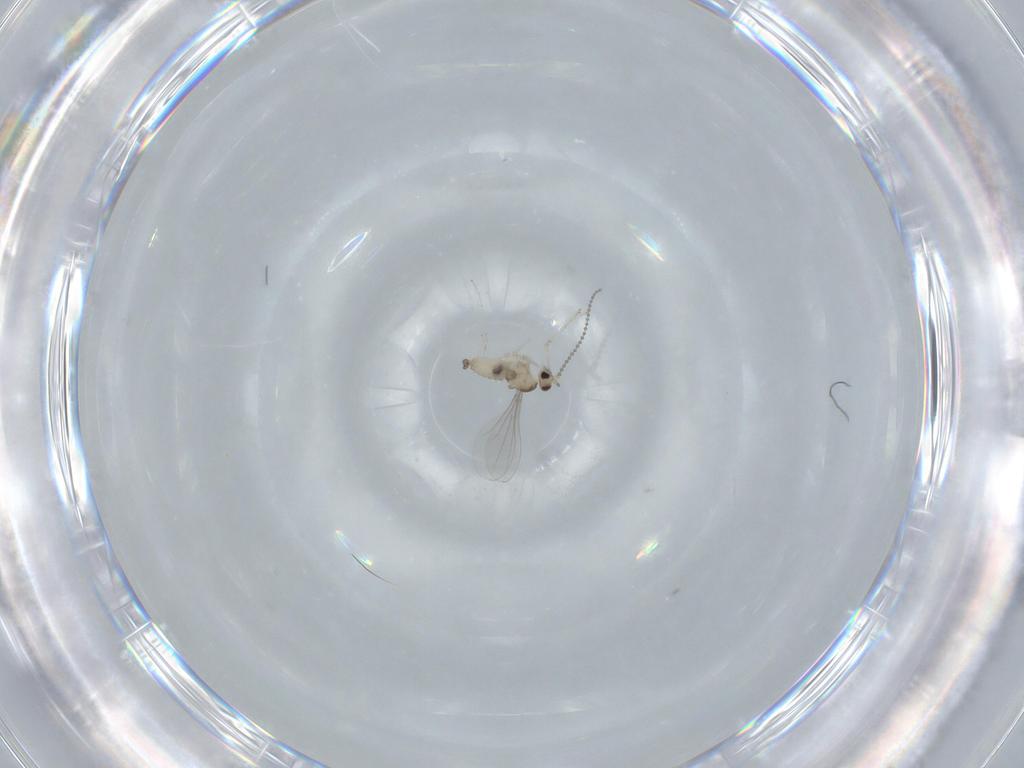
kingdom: Animalia
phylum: Arthropoda
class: Insecta
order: Diptera
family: Cecidomyiidae
